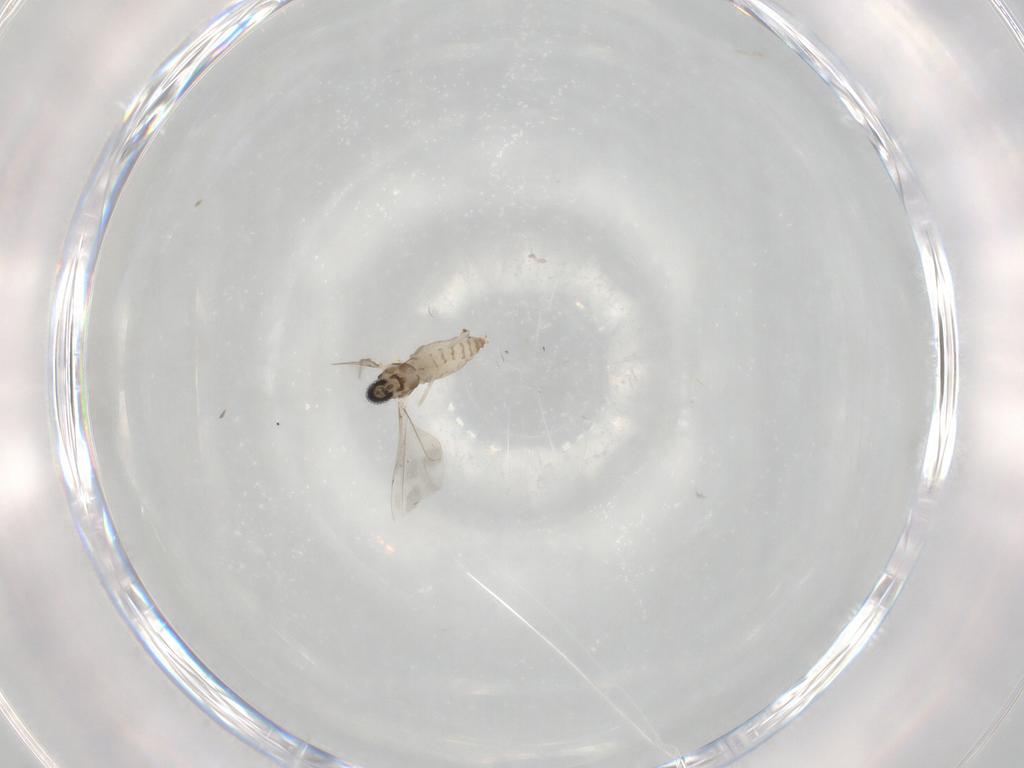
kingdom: Animalia
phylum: Arthropoda
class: Insecta
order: Diptera
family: Cecidomyiidae
